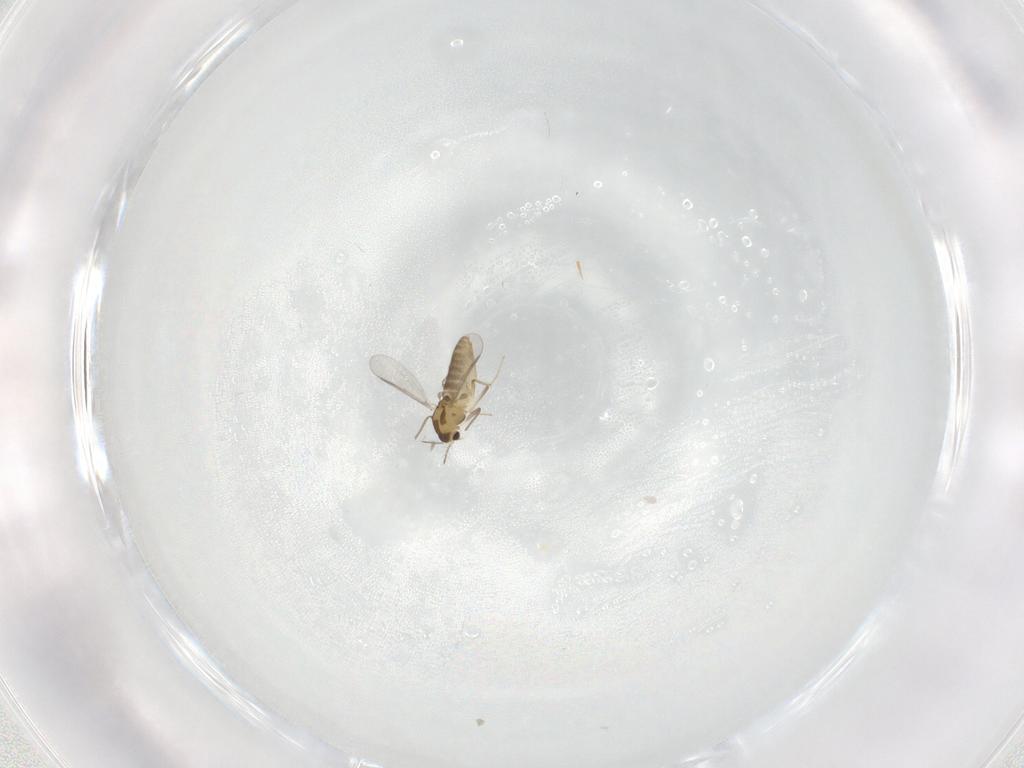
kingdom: Animalia
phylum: Arthropoda
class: Insecta
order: Diptera
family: Chironomidae
